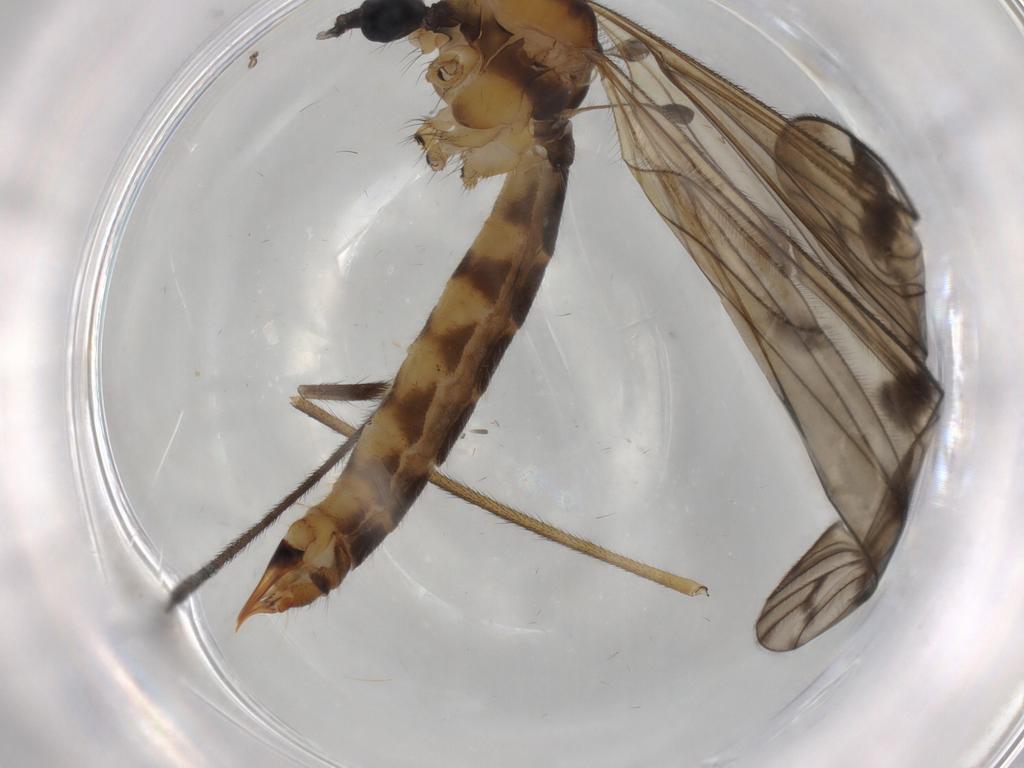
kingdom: Animalia
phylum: Arthropoda
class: Insecta
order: Diptera
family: Phoridae
